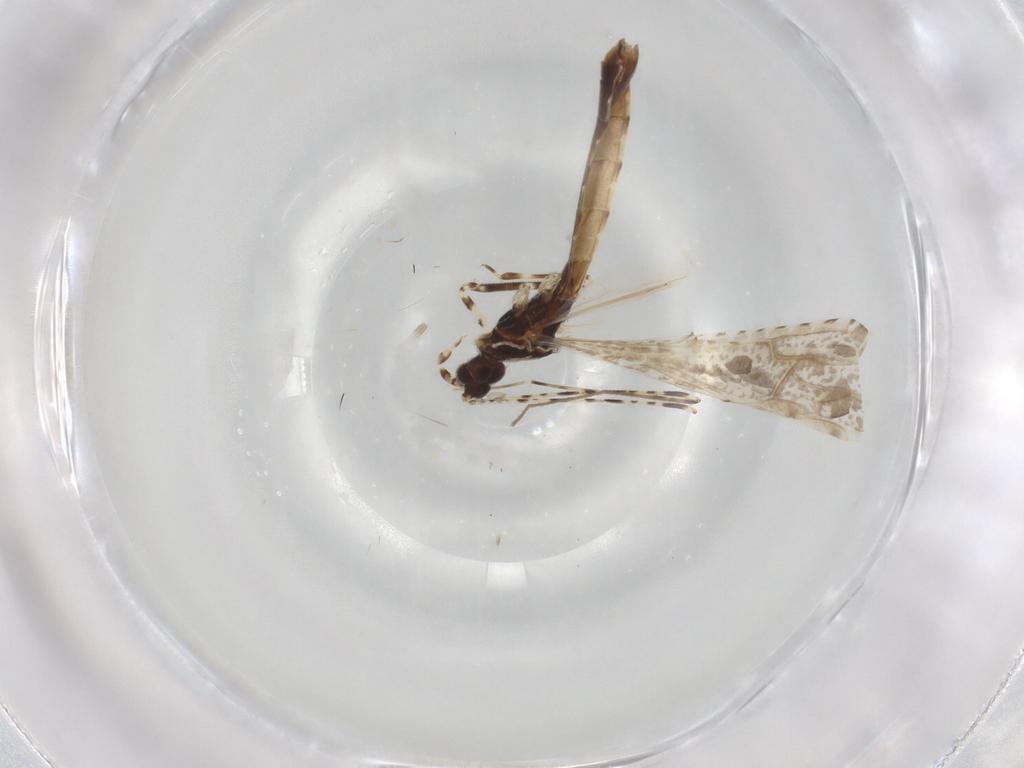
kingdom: Animalia
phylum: Arthropoda
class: Insecta
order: Hemiptera
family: Reduviidae
